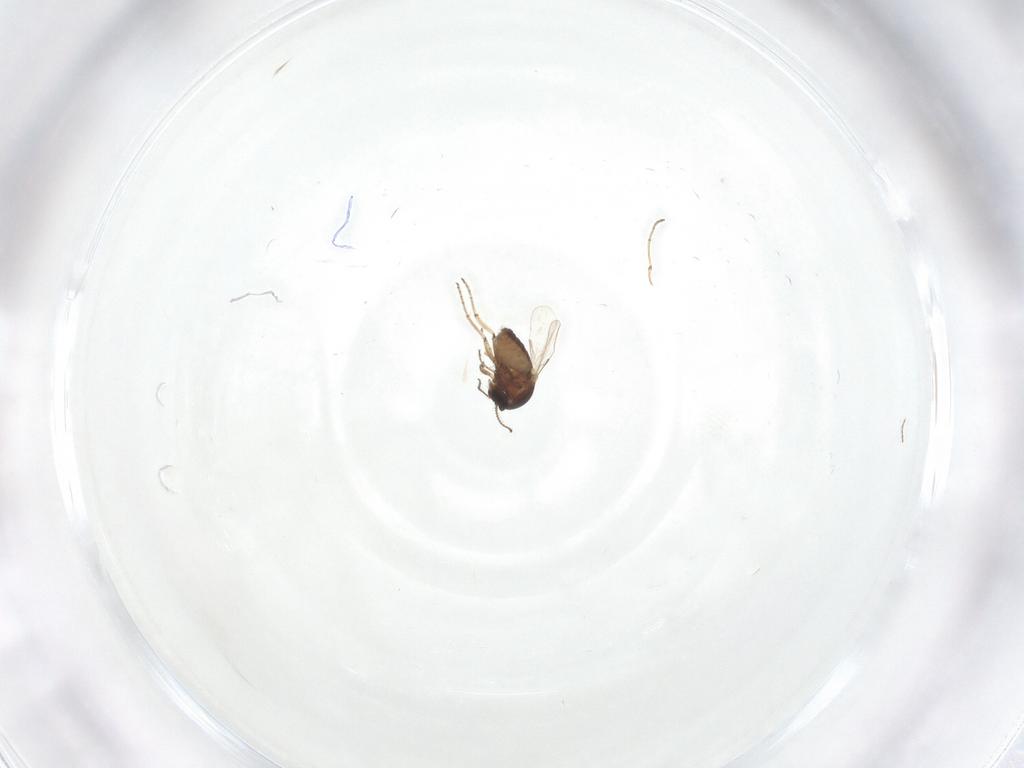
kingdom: Animalia
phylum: Arthropoda
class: Insecta
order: Diptera
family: Ceratopogonidae
